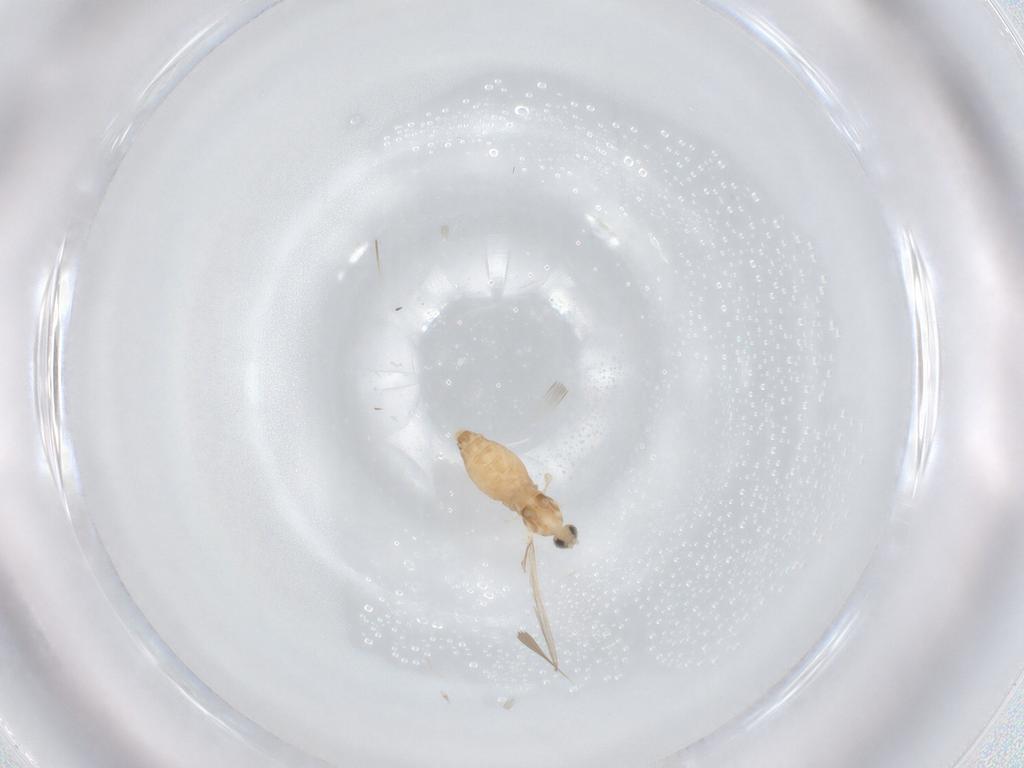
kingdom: Animalia
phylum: Arthropoda
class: Insecta
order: Diptera
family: Cecidomyiidae
